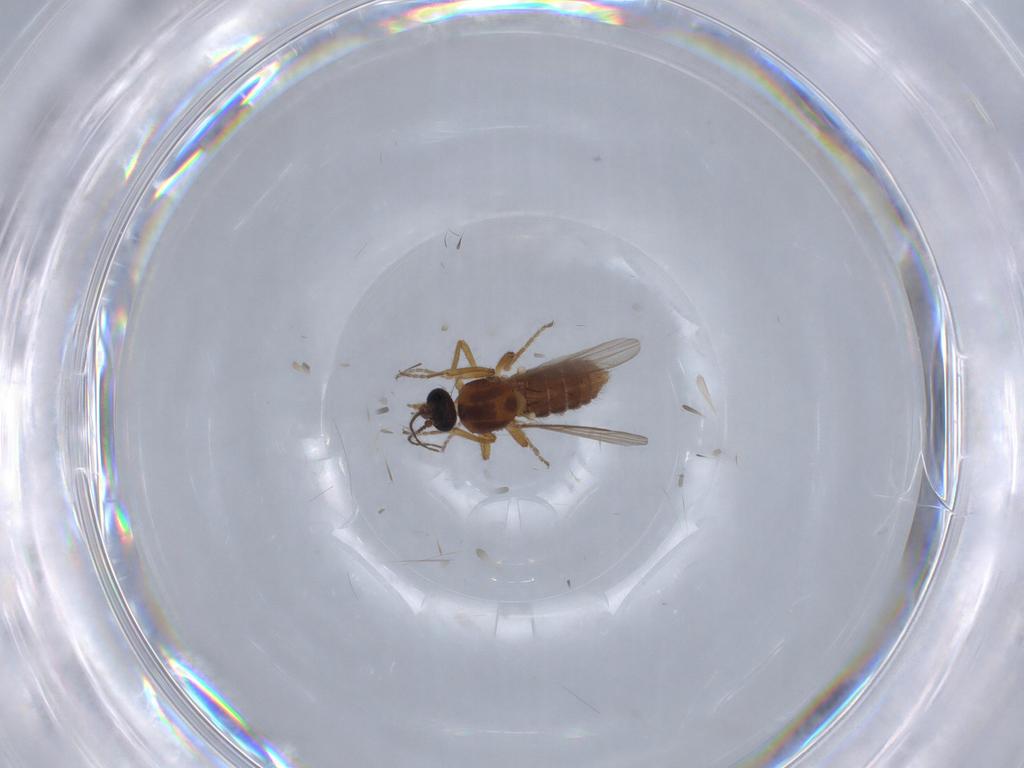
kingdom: Animalia
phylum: Arthropoda
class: Insecta
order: Diptera
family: Ceratopogonidae
